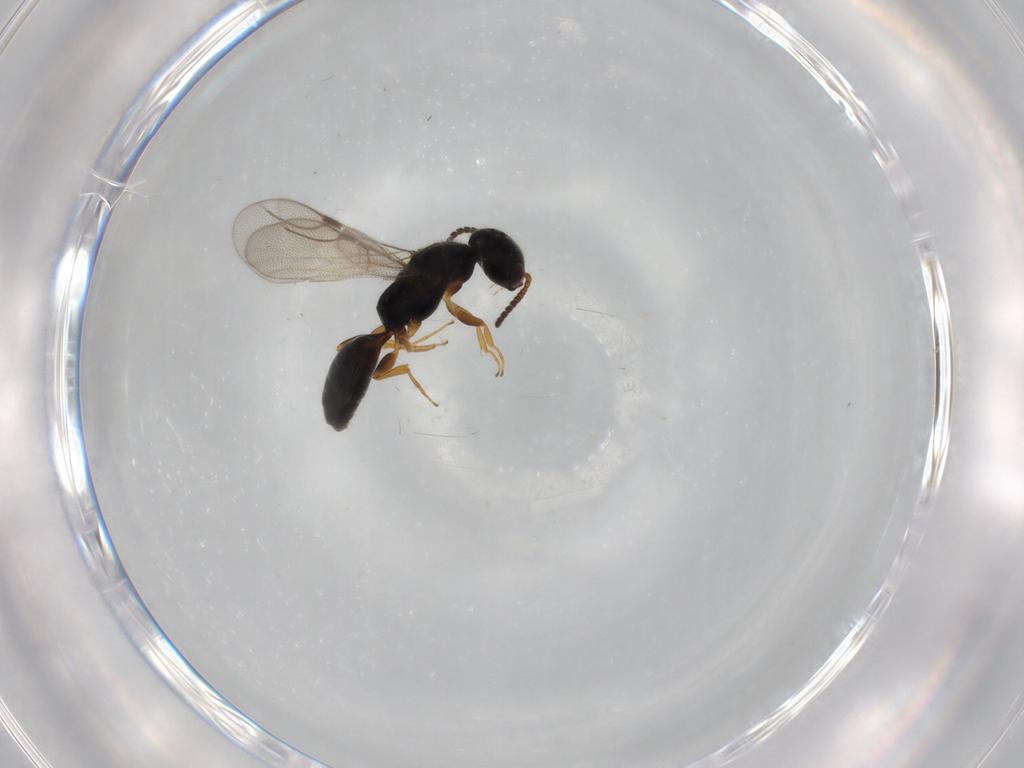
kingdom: Animalia
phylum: Arthropoda
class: Insecta
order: Hymenoptera
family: Bethylidae
